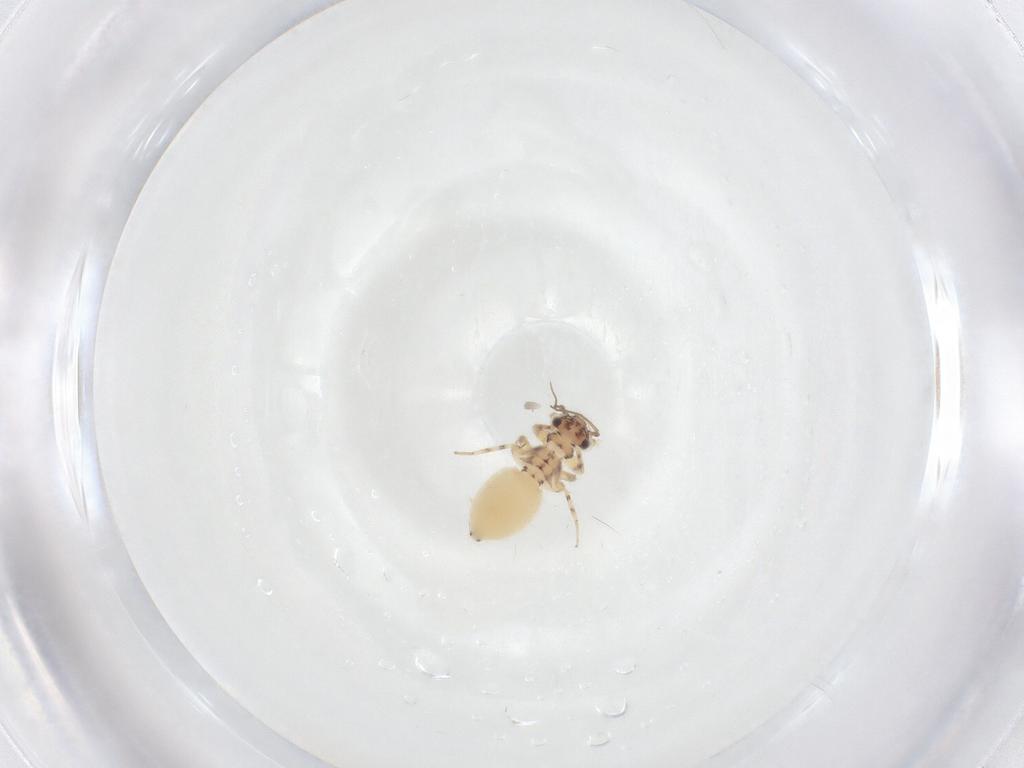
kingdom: Animalia
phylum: Arthropoda
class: Insecta
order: Psocodea
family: Lepidopsocidae
